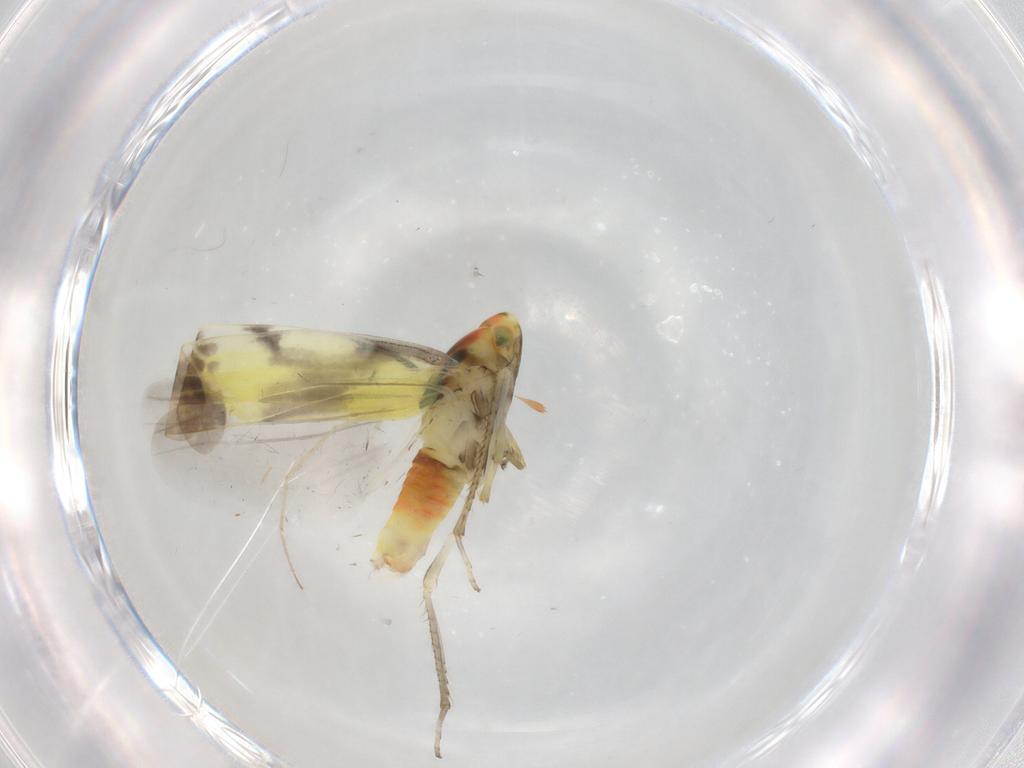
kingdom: Animalia
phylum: Arthropoda
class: Insecta
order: Hemiptera
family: Cicadellidae
